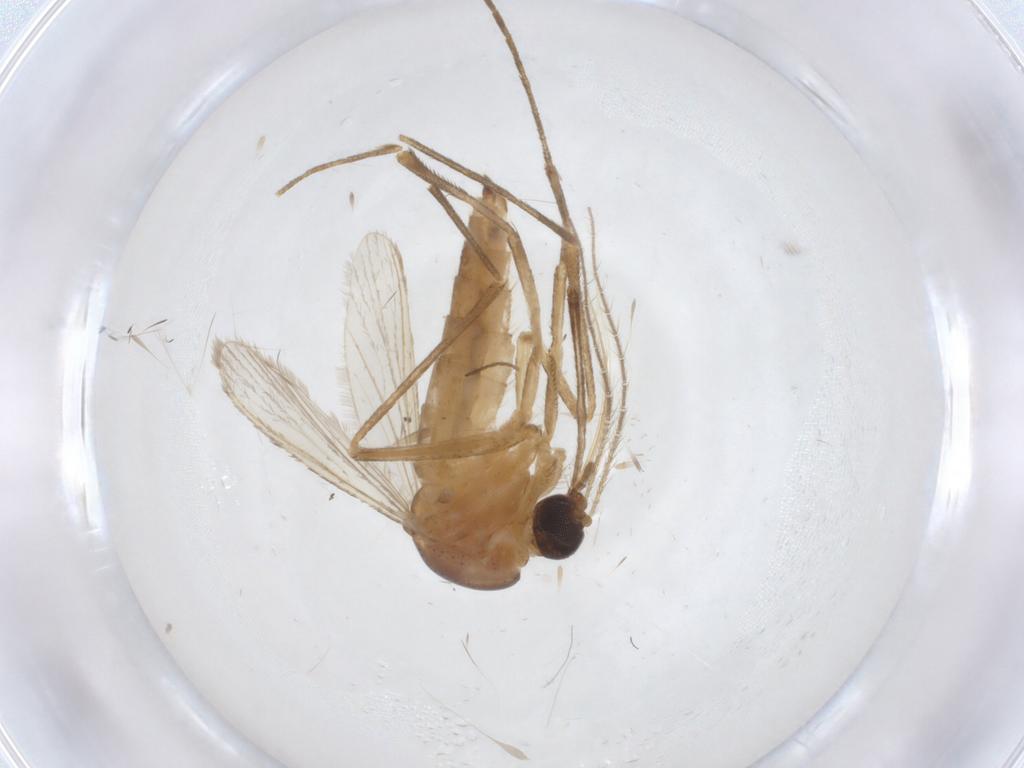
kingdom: Animalia
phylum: Arthropoda
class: Insecta
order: Diptera
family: Culicidae
